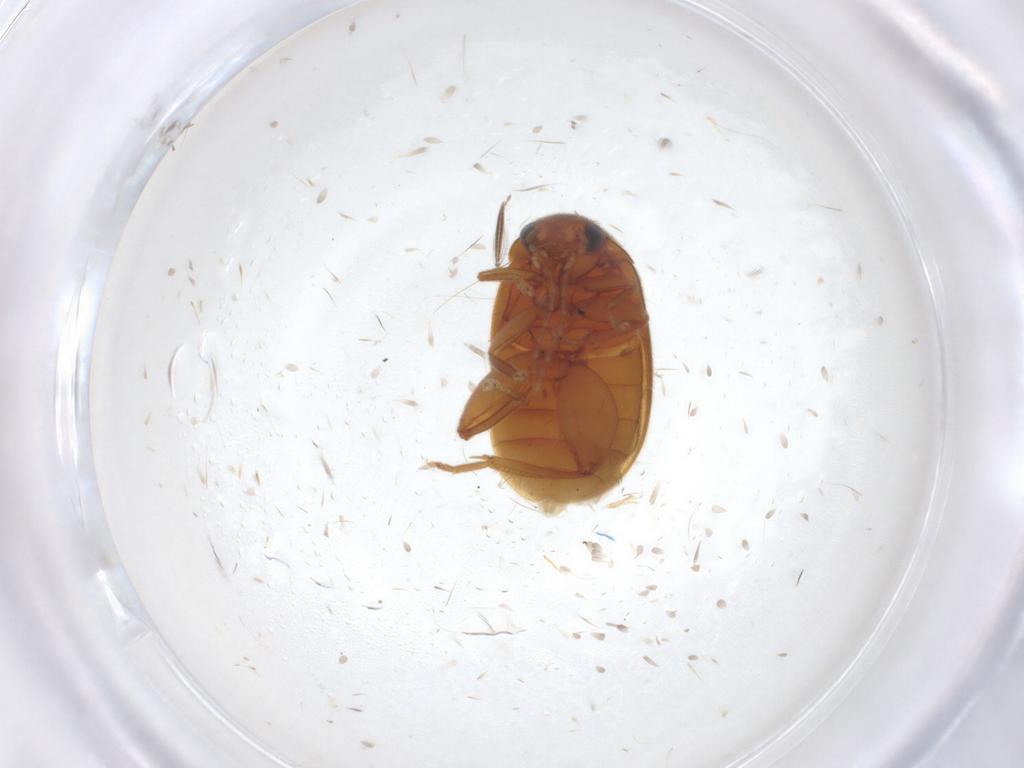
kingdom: Animalia
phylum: Arthropoda
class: Insecta
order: Coleoptera
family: Scirtidae
